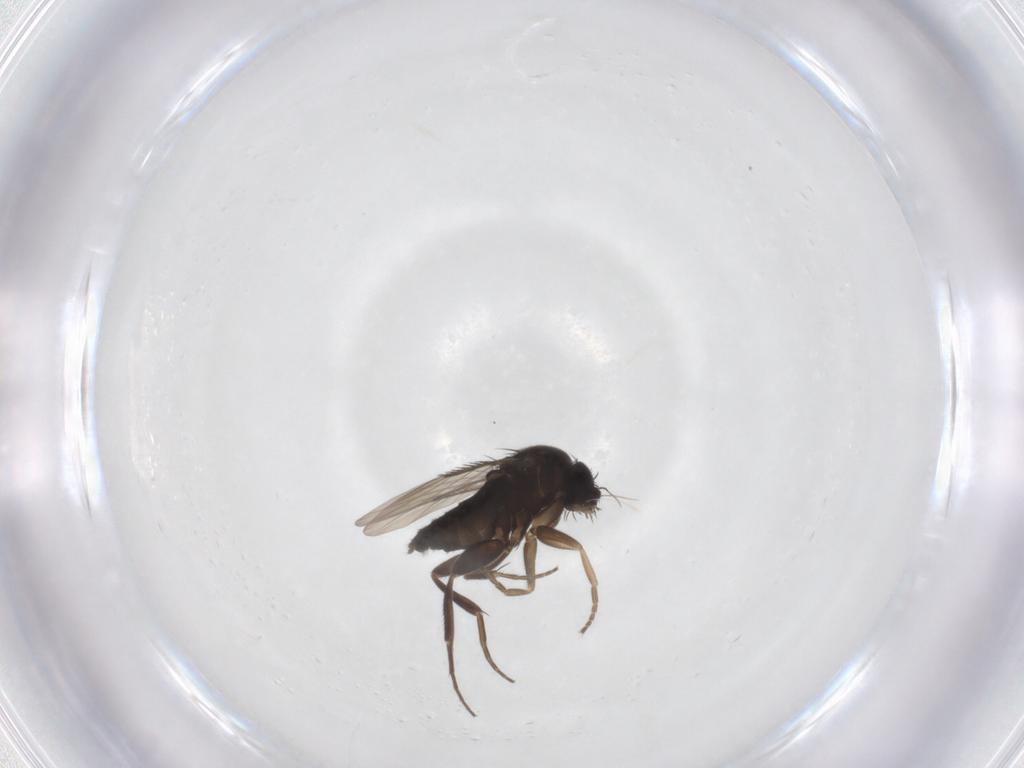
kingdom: Animalia
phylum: Arthropoda
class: Insecta
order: Diptera
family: Phoridae
